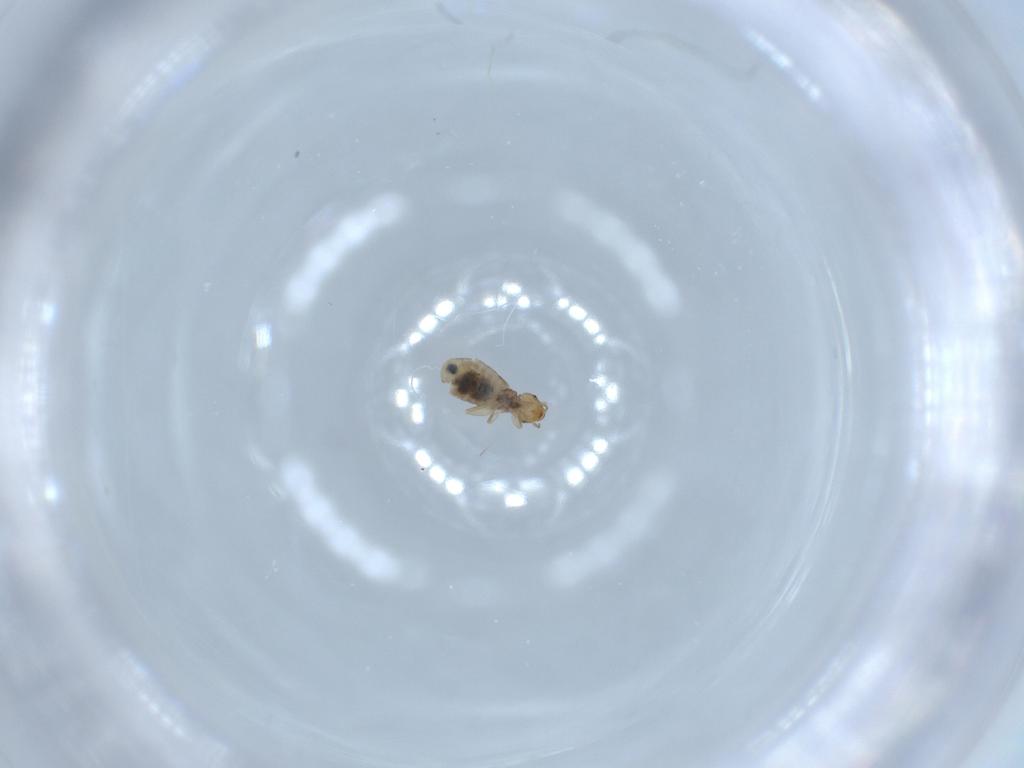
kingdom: Animalia
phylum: Arthropoda
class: Insecta
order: Psocodea
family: Liposcelididae
